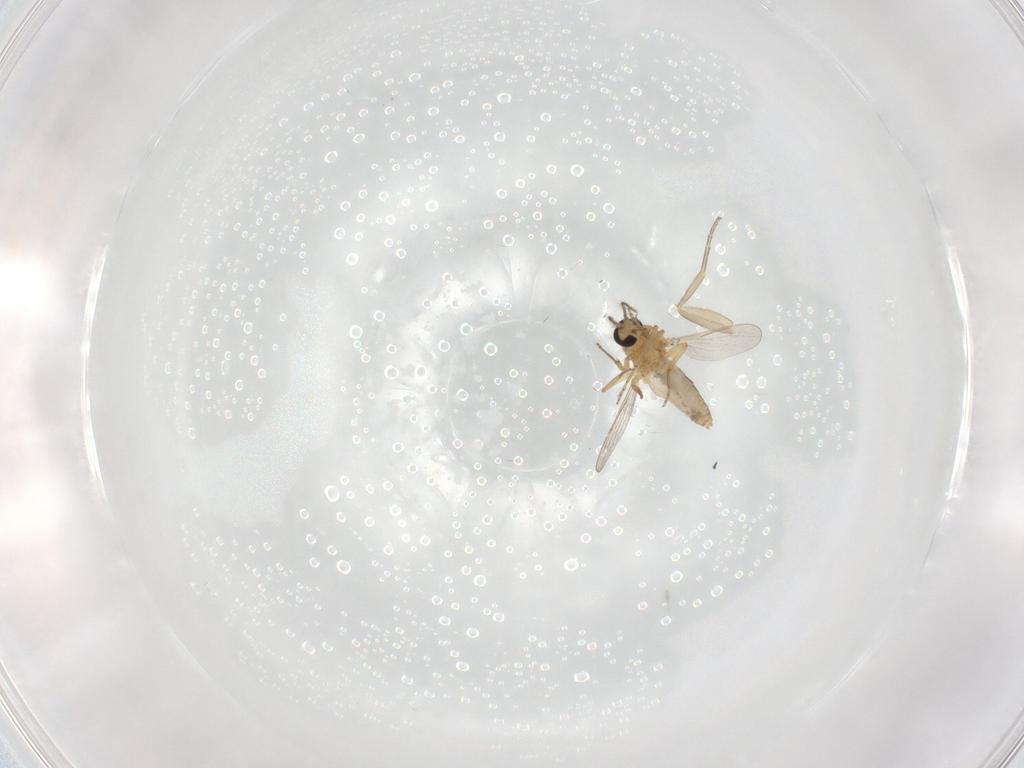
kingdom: Animalia
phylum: Arthropoda
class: Insecta
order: Diptera
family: Ceratopogonidae
